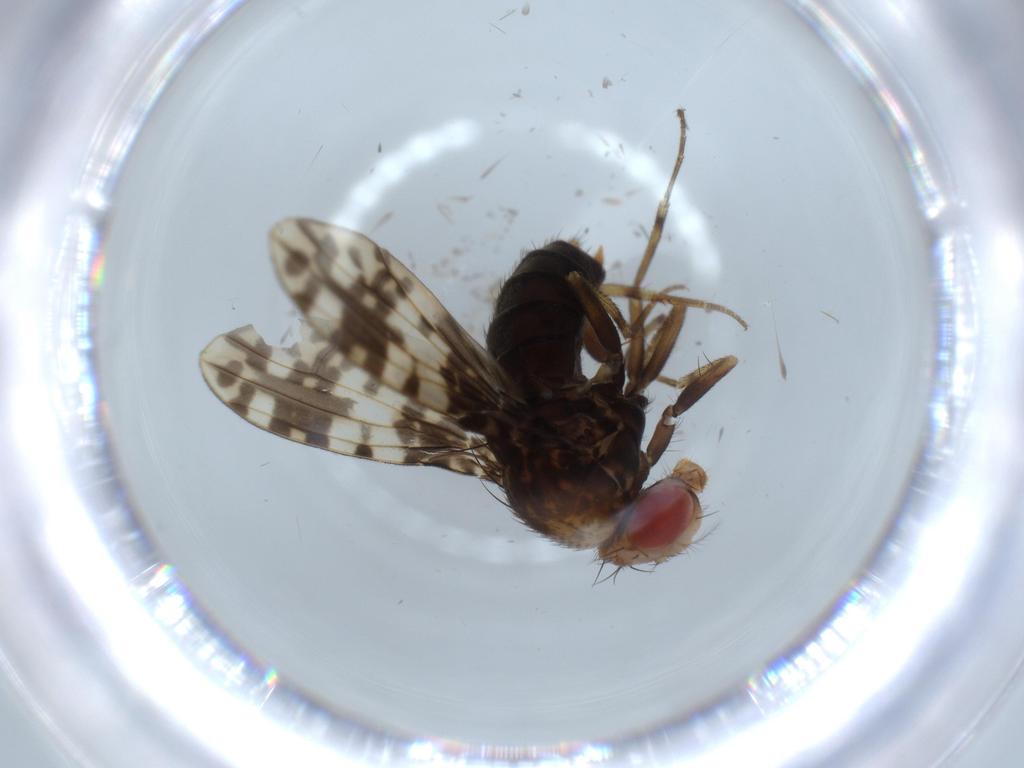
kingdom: Animalia
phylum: Arthropoda
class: Insecta
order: Diptera
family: Drosophilidae
